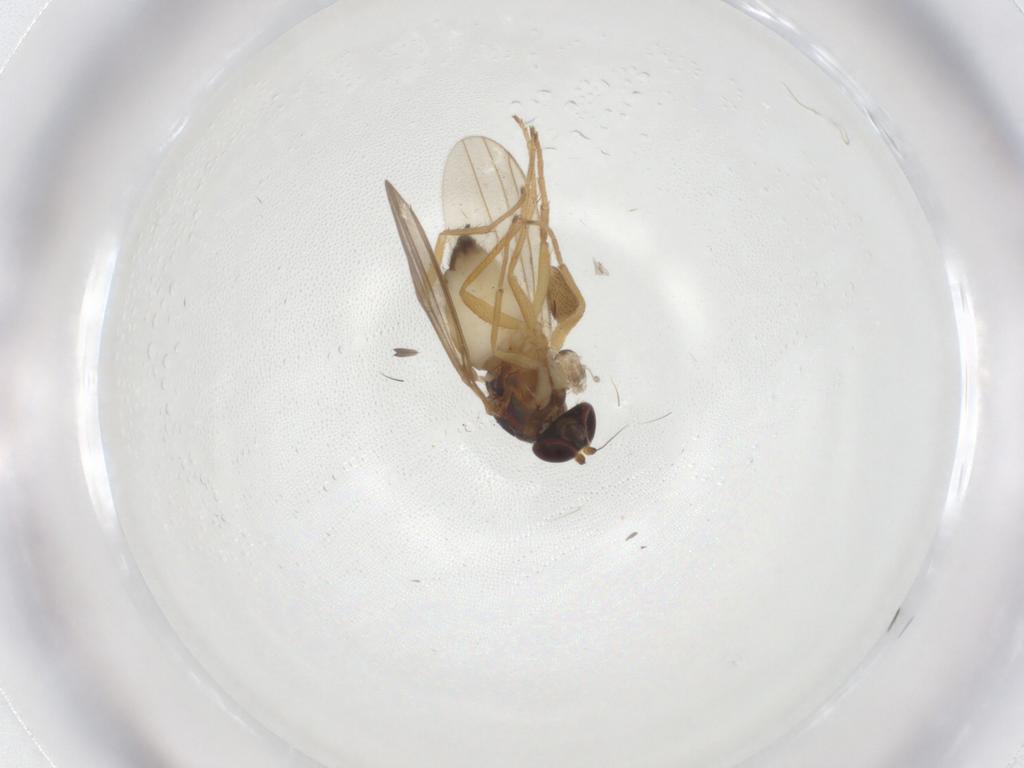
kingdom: Animalia
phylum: Arthropoda
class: Insecta
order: Diptera
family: Dolichopodidae
